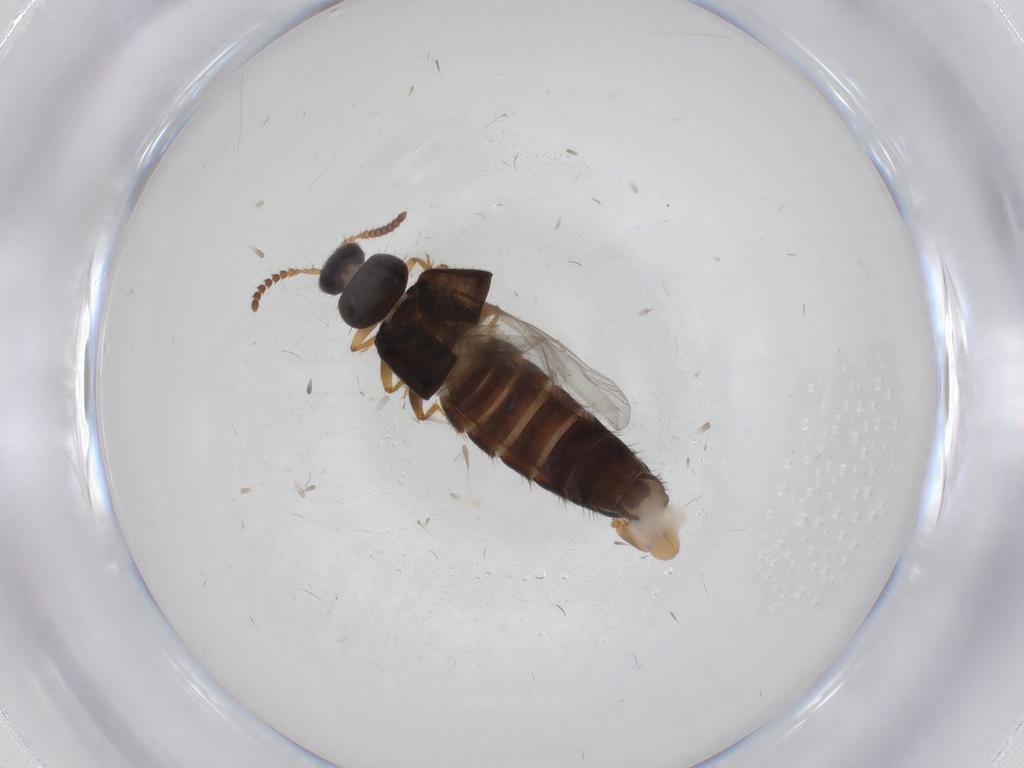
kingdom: Animalia
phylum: Arthropoda
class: Insecta
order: Coleoptera
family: Staphylinidae
